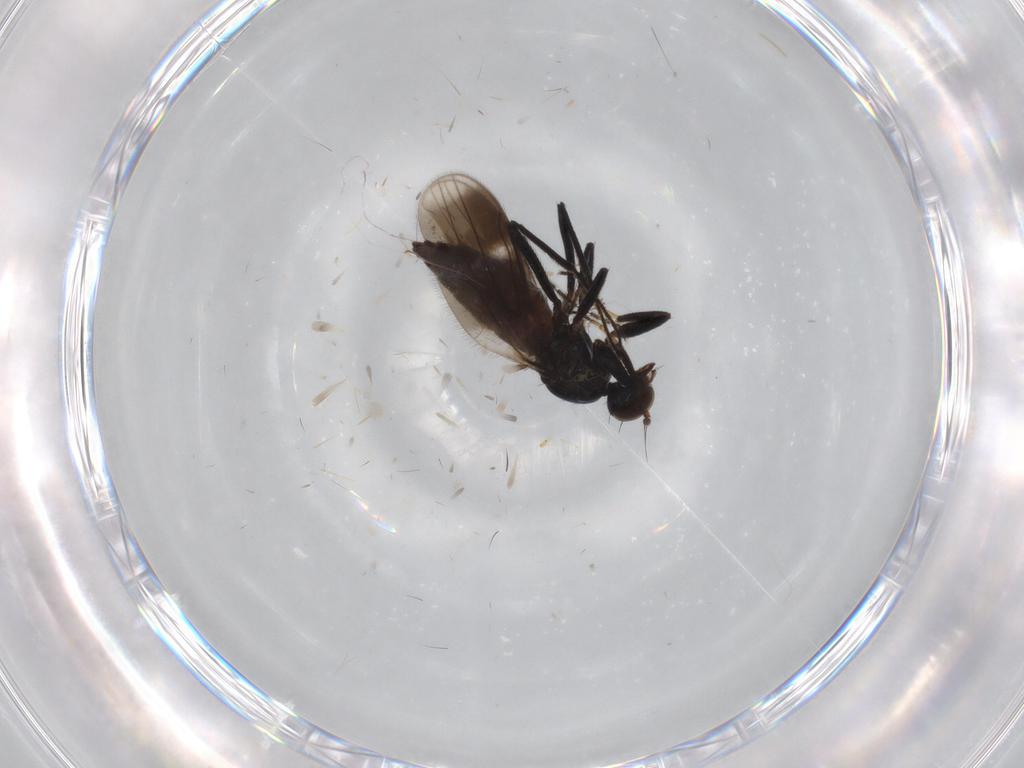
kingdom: Animalia
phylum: Arthropoda
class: Insecta
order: Diptera
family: Hybotidae
